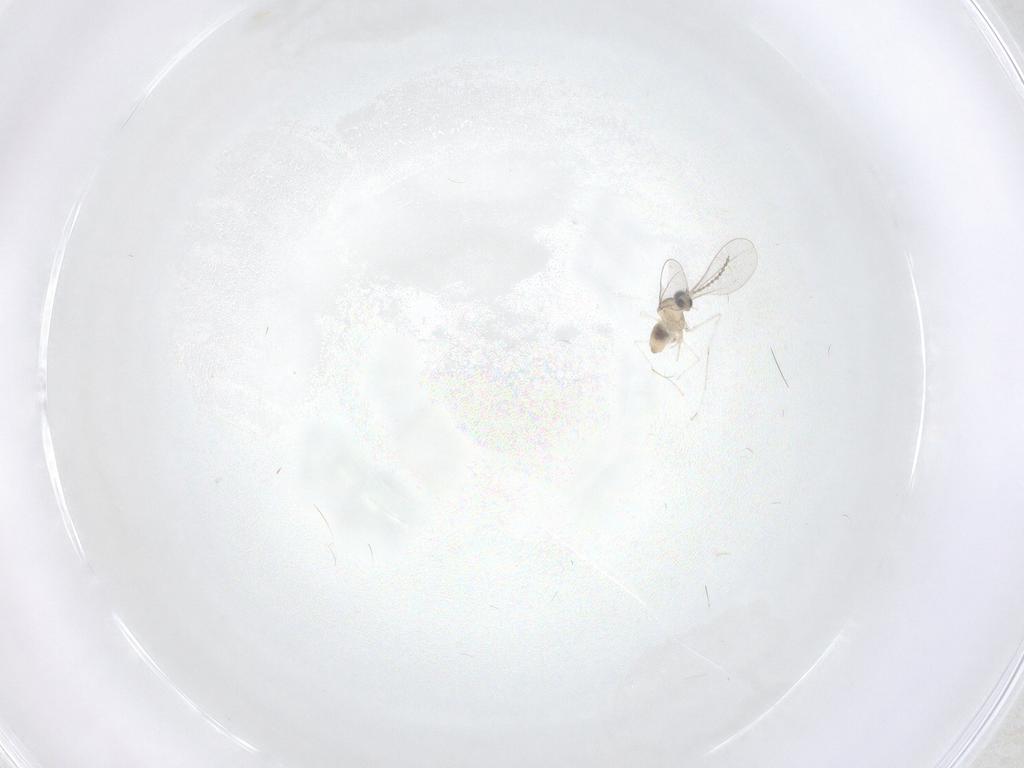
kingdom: Animalia
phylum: Arthropoda
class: Insecta
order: Diptera
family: Cecidomyiidae
